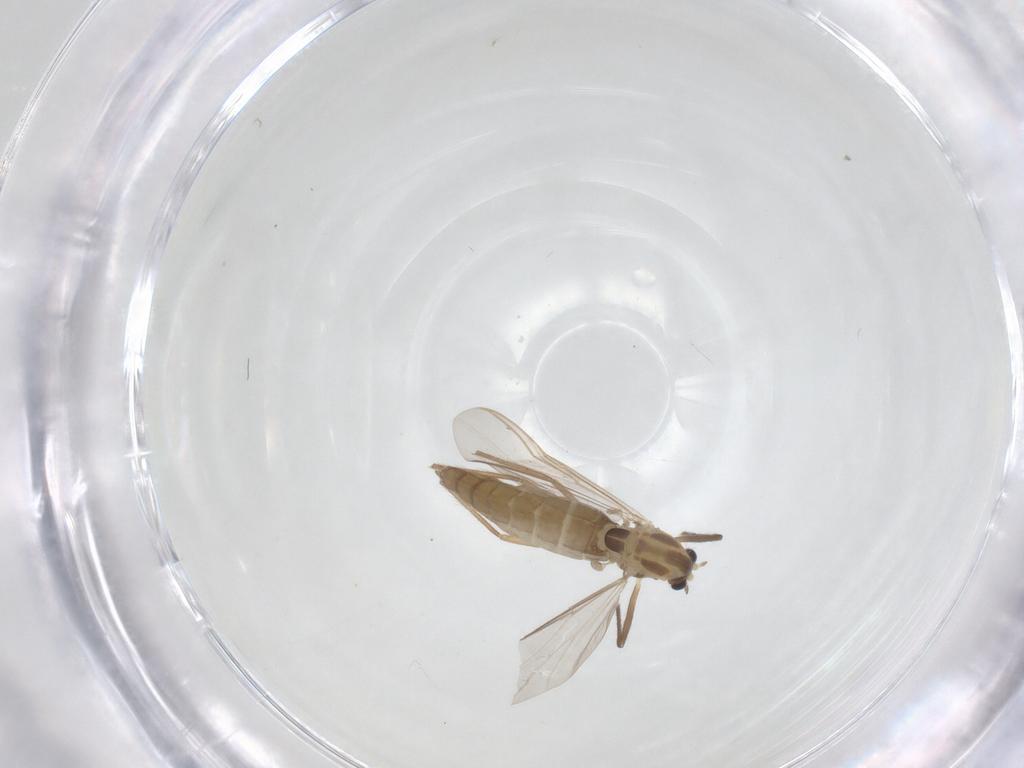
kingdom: Animalia
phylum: Arthropoda
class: Insecta
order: Diptera
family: Chironomidae
